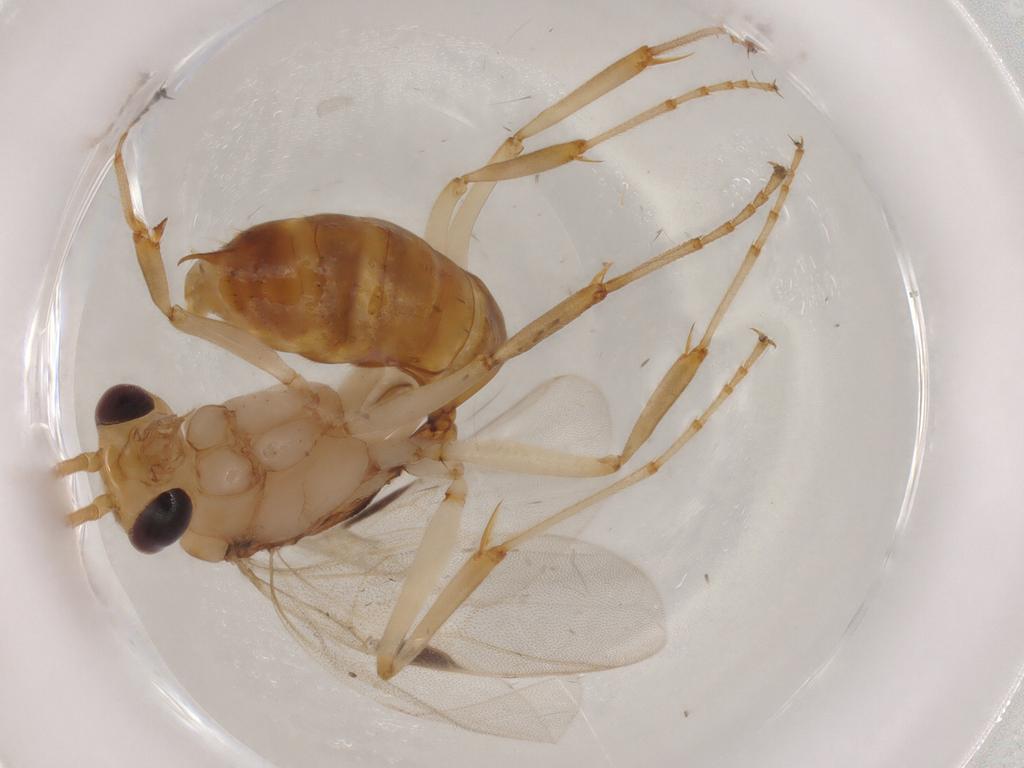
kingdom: Animalia
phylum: Arthropoda
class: Insecta
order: Hymenoptera
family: Formicidae
